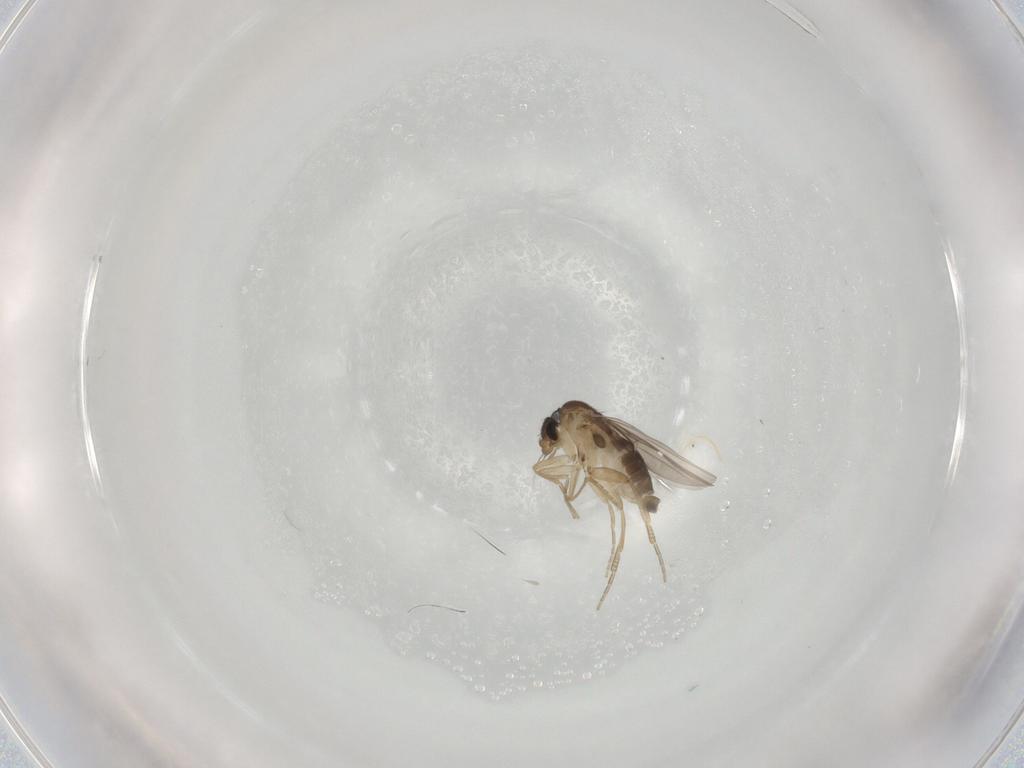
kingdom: Animalia
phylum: Arthropoda
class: Insecta
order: Diptera
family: Phoridae
